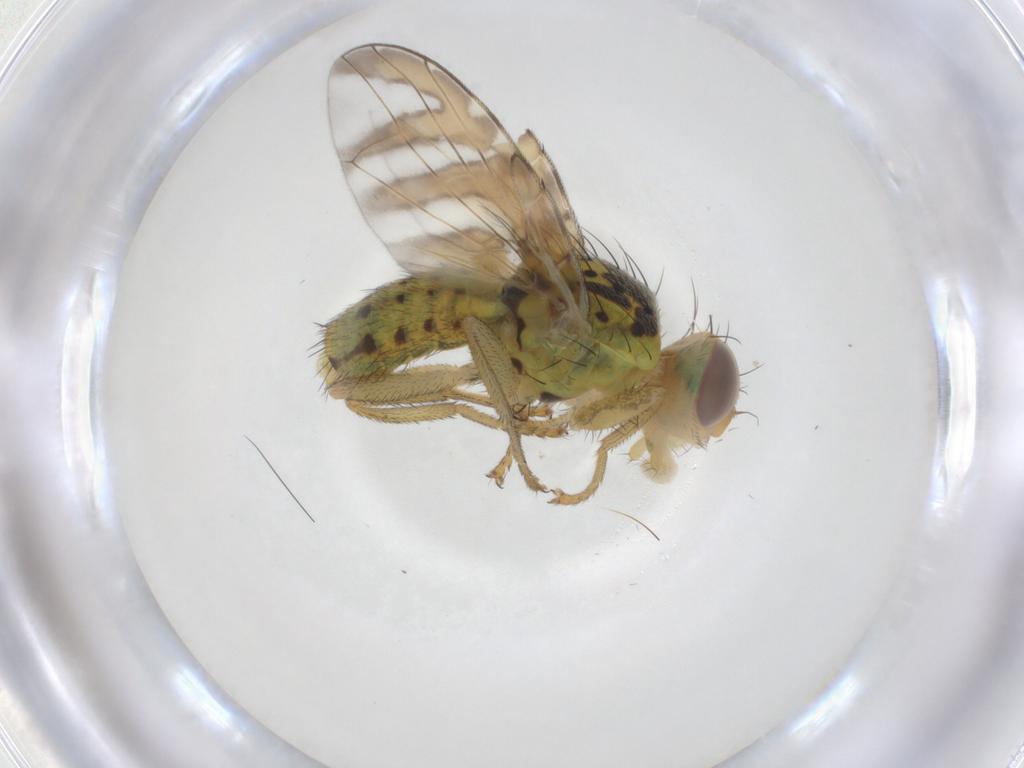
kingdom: Animalia
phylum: Arthropoda
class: Insecta
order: Diptera
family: Tephritidae
